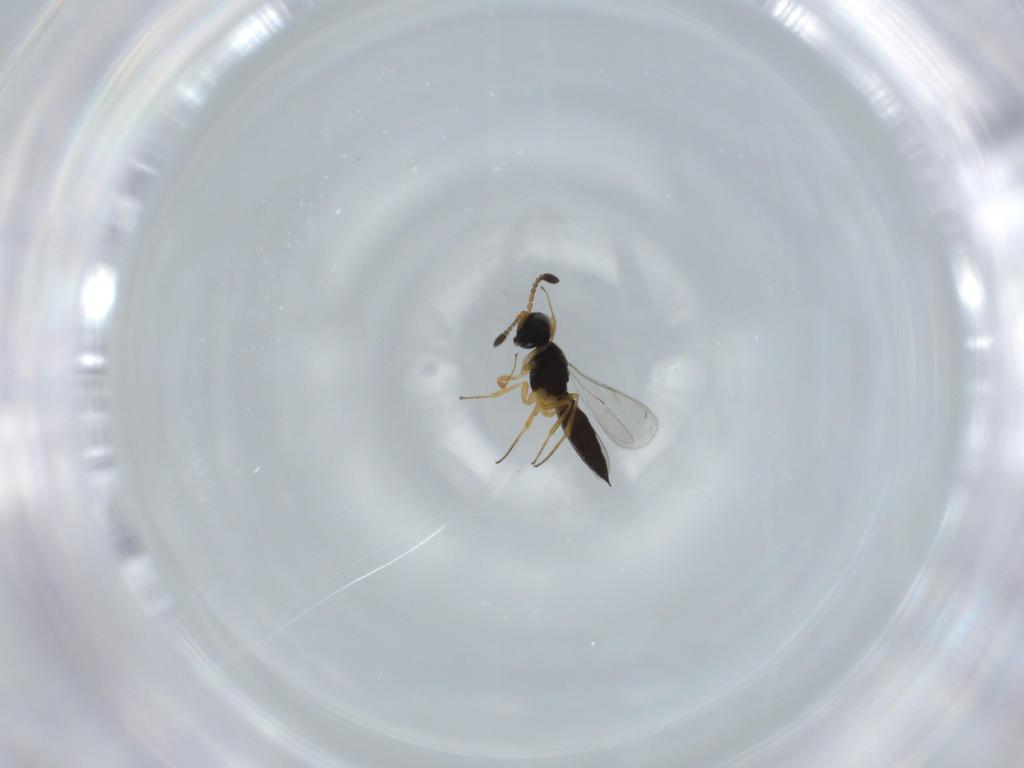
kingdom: Animalia
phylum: Arthropoda
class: Insecta
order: Hymenoptera
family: Scelionidae
